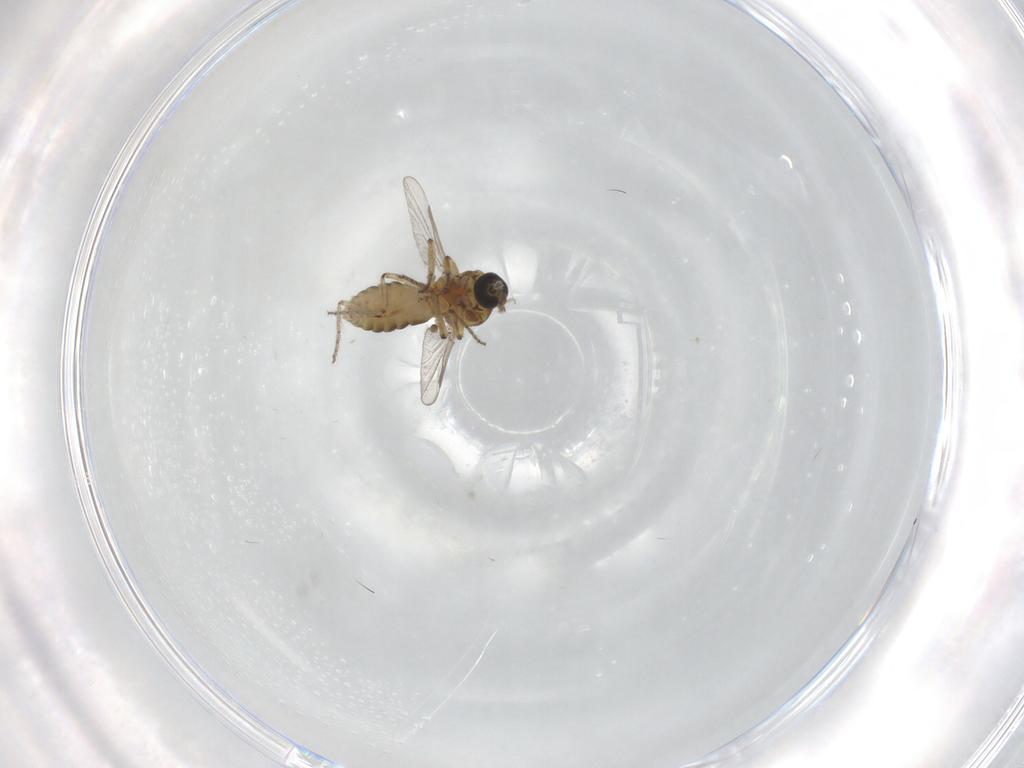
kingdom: Animalia
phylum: Arthropoda
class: Insecta
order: Diptera
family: Ceratopogonidae
